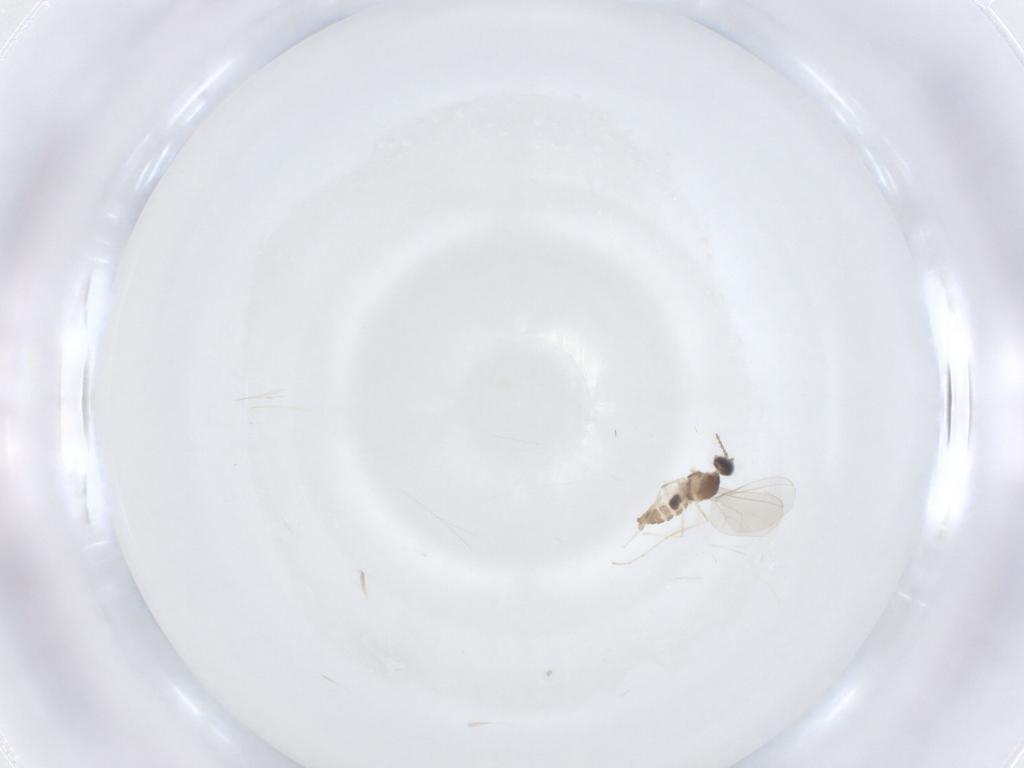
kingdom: Animalia
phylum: Arthropoda
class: Insecta
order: Diptera
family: Cecidomyiidae
